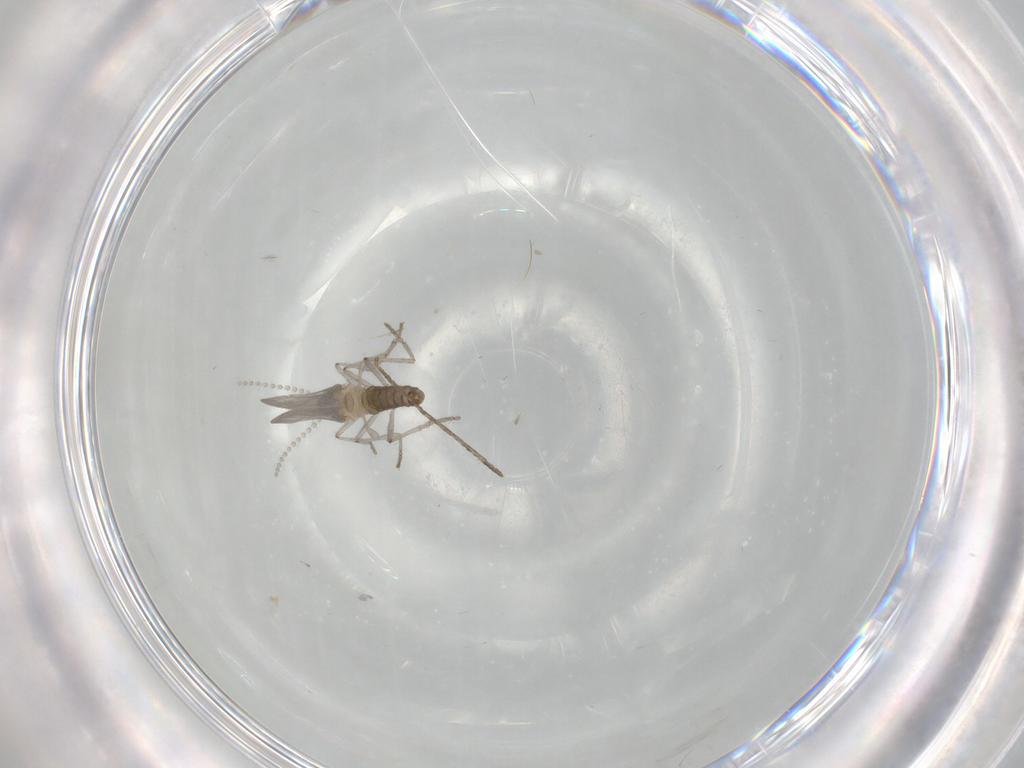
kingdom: Animalia
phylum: Arthropoda
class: Insecta
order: Diptera
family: Cecidomyiidae
